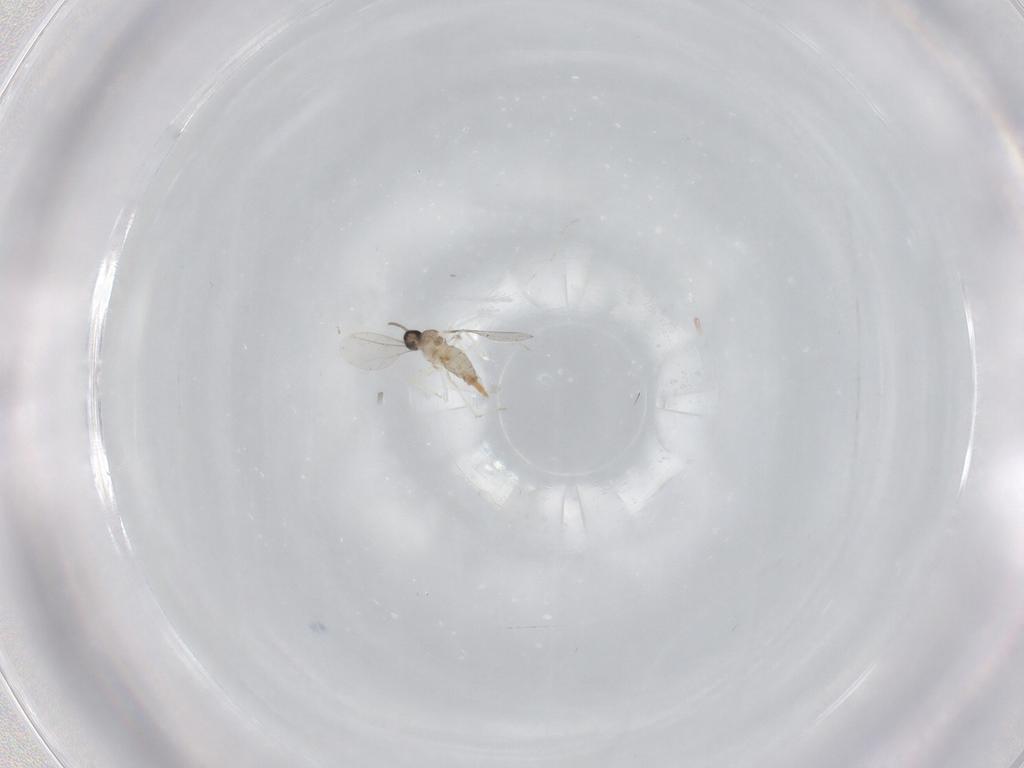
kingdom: Animalia
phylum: Arthropoda
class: Insecta
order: Diptera
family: Cecidomyiidae
